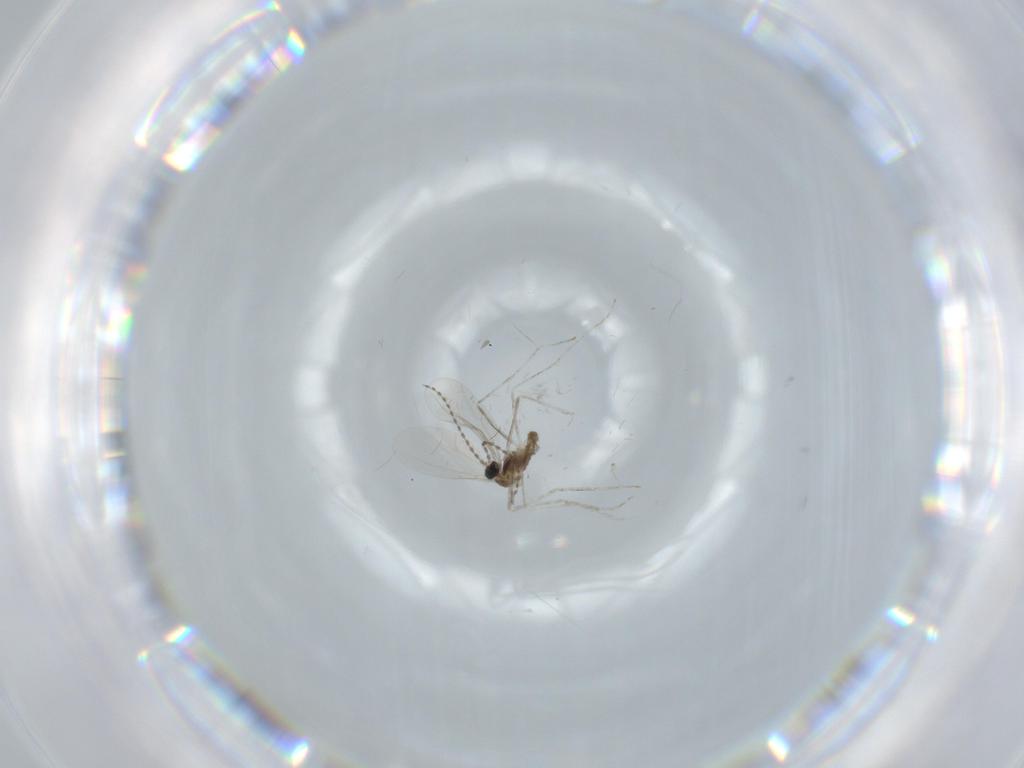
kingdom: Animalia
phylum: Arthropoda
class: Insecta
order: Diptera
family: Cecidomyiidae
